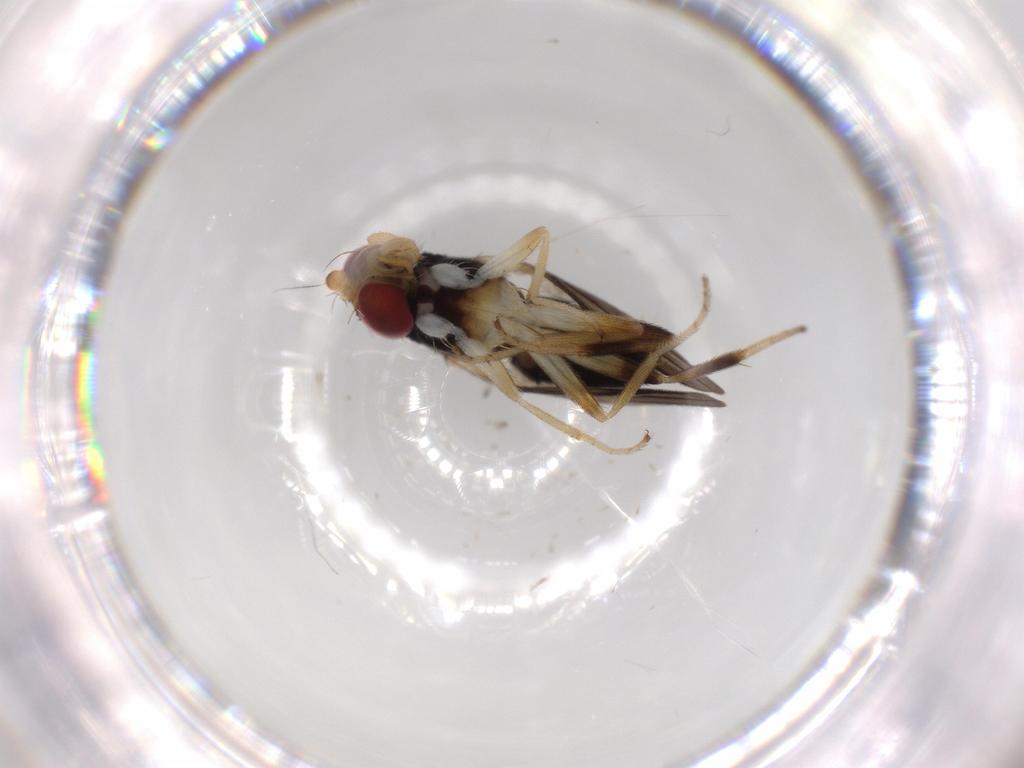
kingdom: Animalia
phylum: Arthropoda
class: Insecta
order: Diptera
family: Clusiidae
